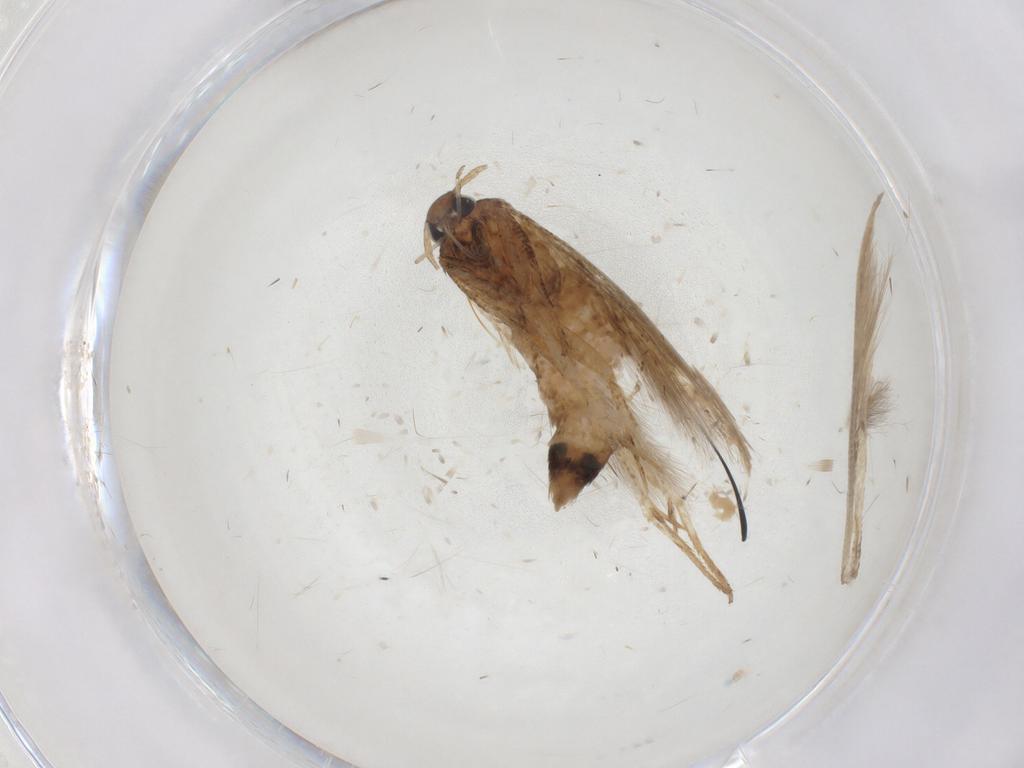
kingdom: Animalia
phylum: Arthropoda
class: Insecta
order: Lepidoptera
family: Cosmopterigidae
